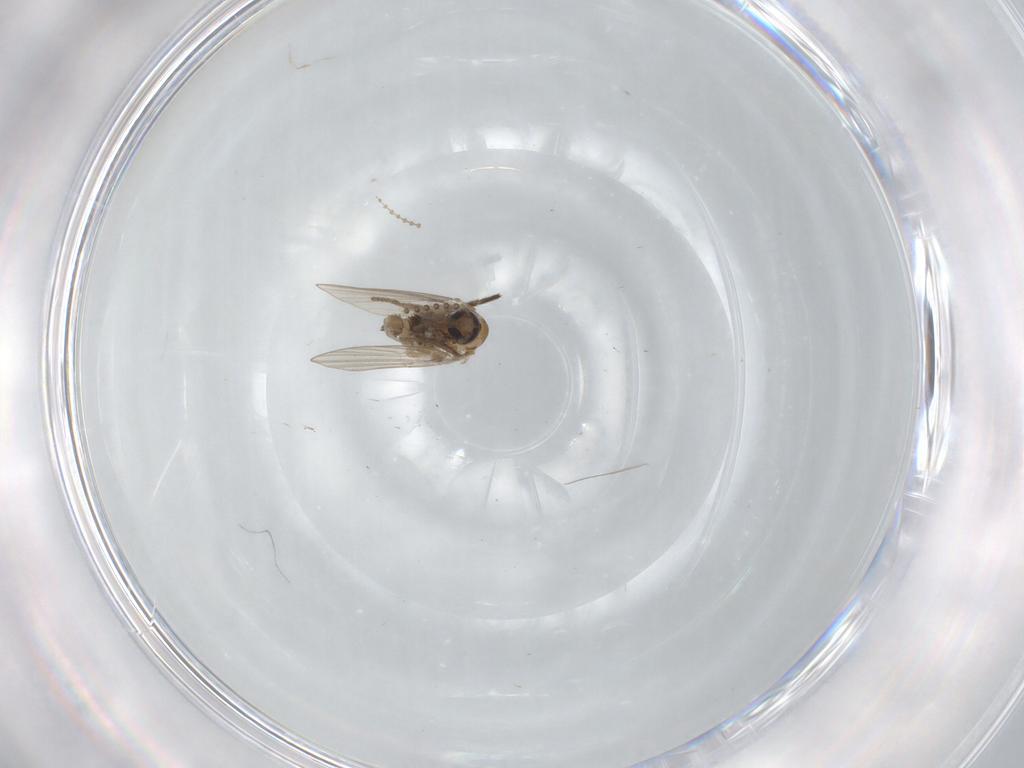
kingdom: Animalia
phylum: Arthropoda
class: Insecta
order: Diptera
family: Psychodidae
